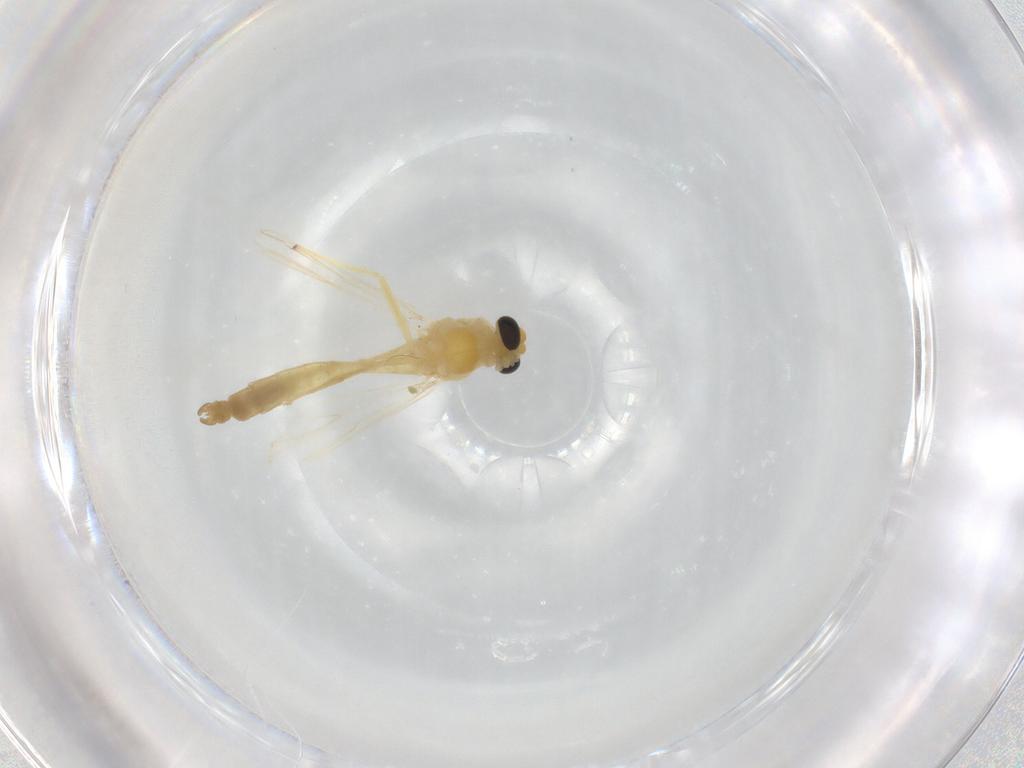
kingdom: Animalia
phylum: Arthropoda
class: Insecta
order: Diptera
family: Chironomidae
